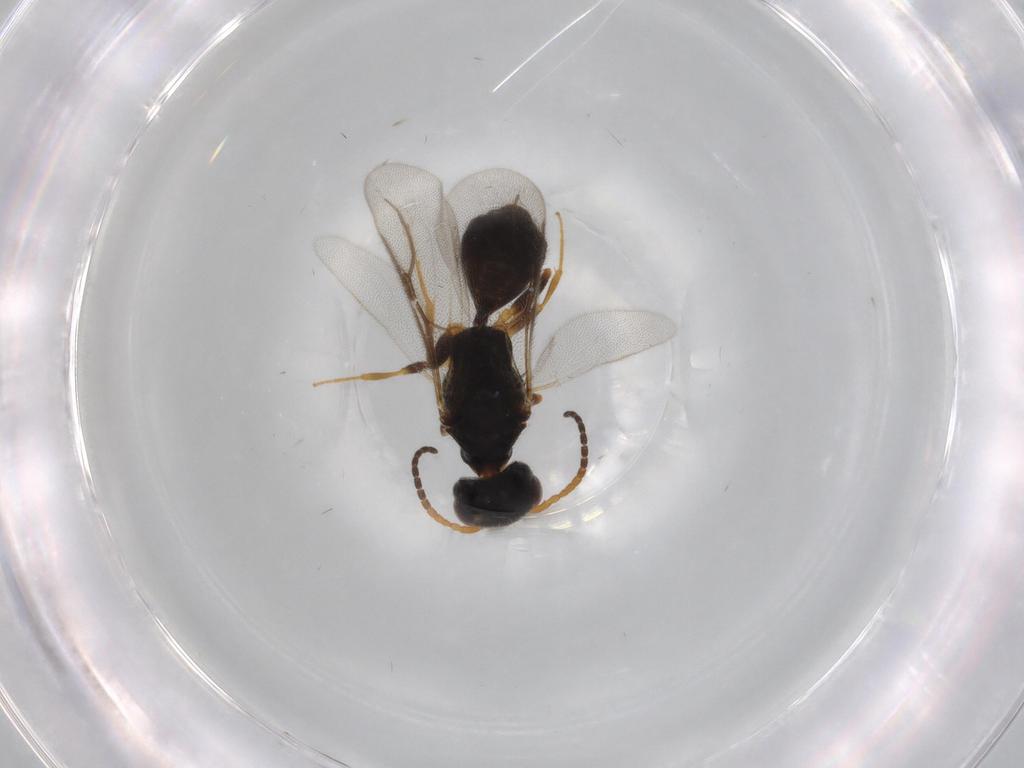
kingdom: Animalia
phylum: Arthropoda
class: Insecta
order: Hymenoptera
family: Bethylidae
